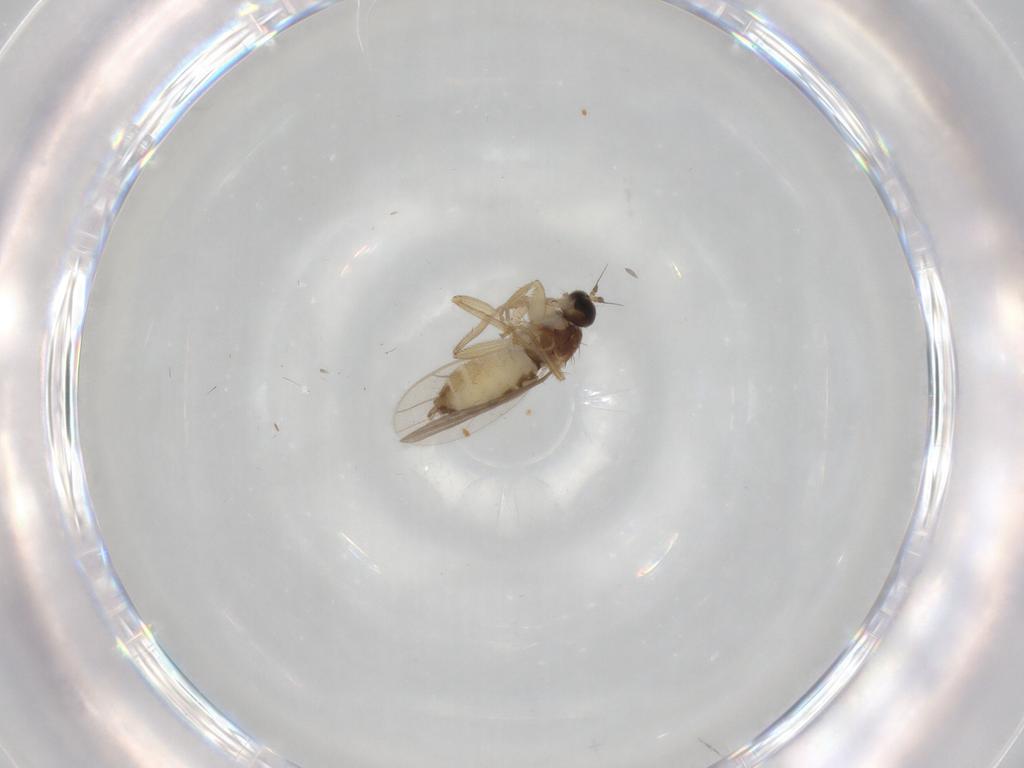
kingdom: Animalia
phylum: Arthropoda
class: Insecta
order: Diptera
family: Hybotidae
